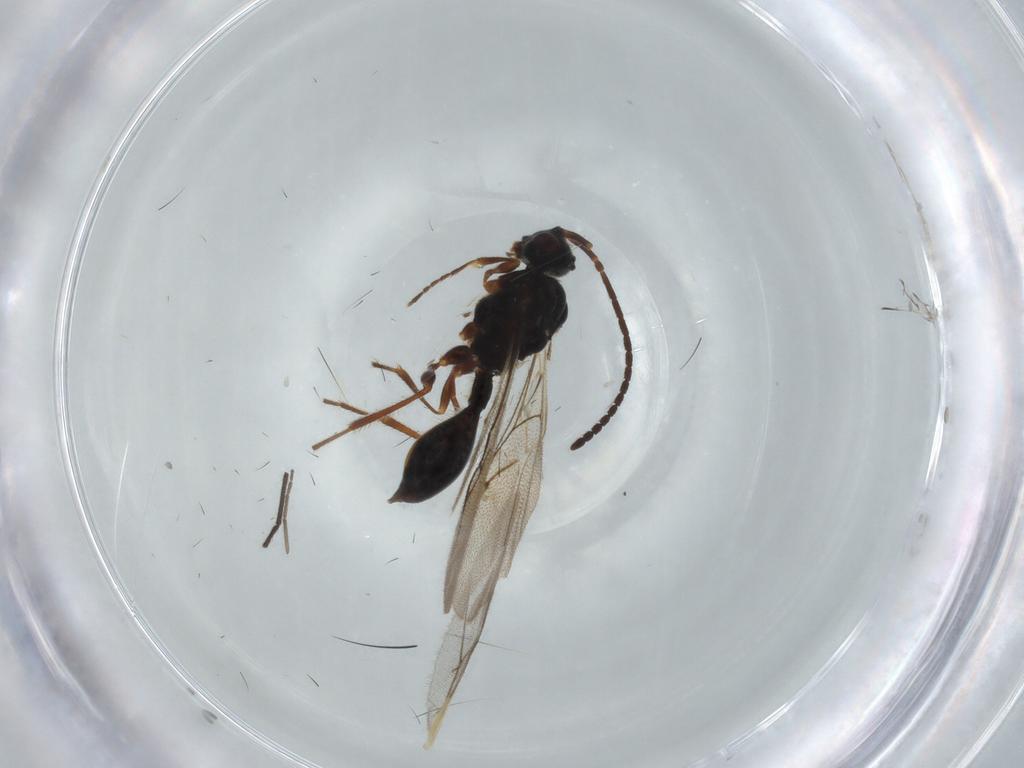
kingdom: Animalia
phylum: Arthropoda
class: Insecta
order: Hymenoptera
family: Braconidae
